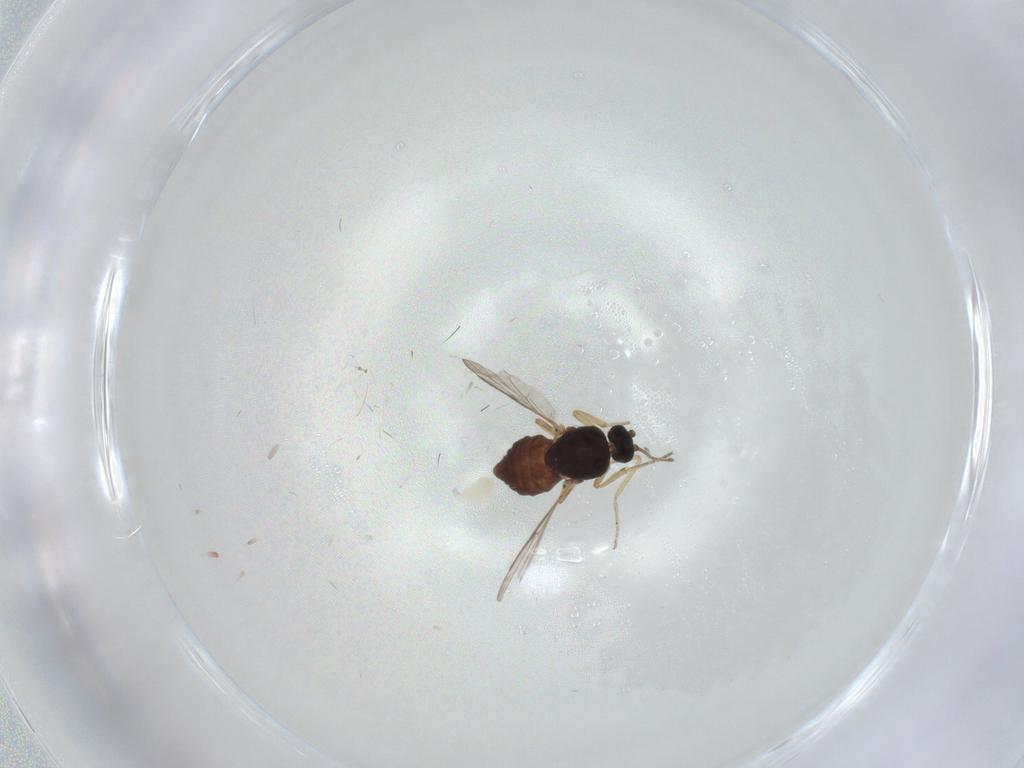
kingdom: Animalia
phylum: Arthropoda
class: Insecta
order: Diptera
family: Ceratopogonidae
